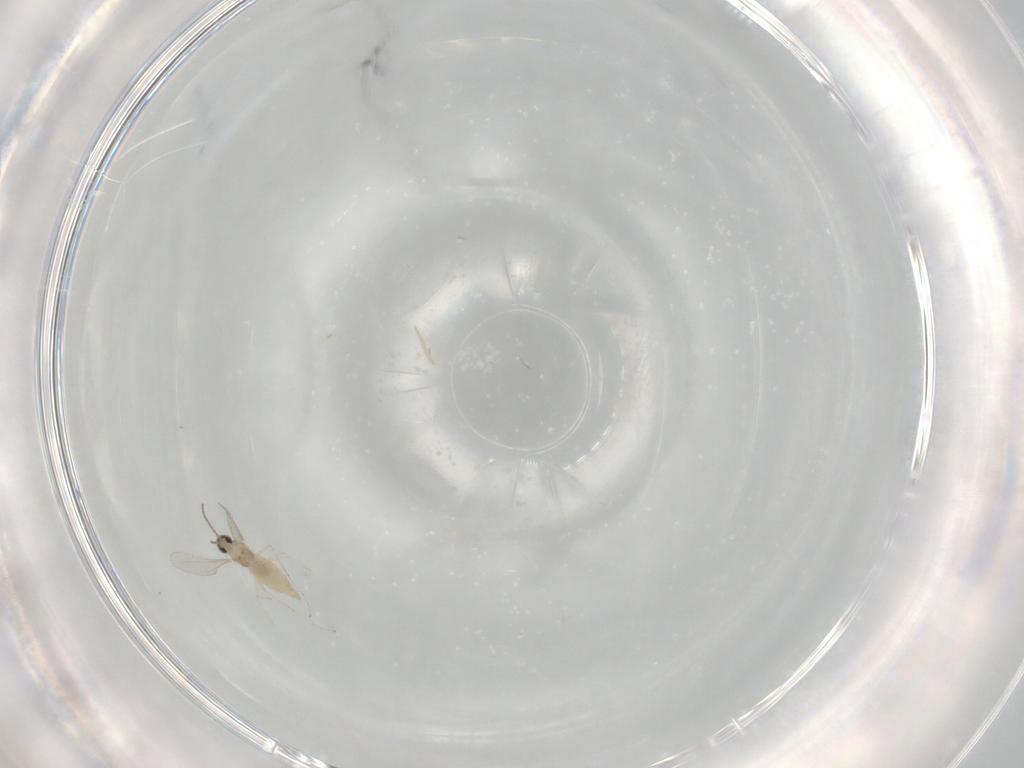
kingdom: Animalia
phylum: Arthropoda
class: Insecta
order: Diptera
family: Cecidomyiidae
